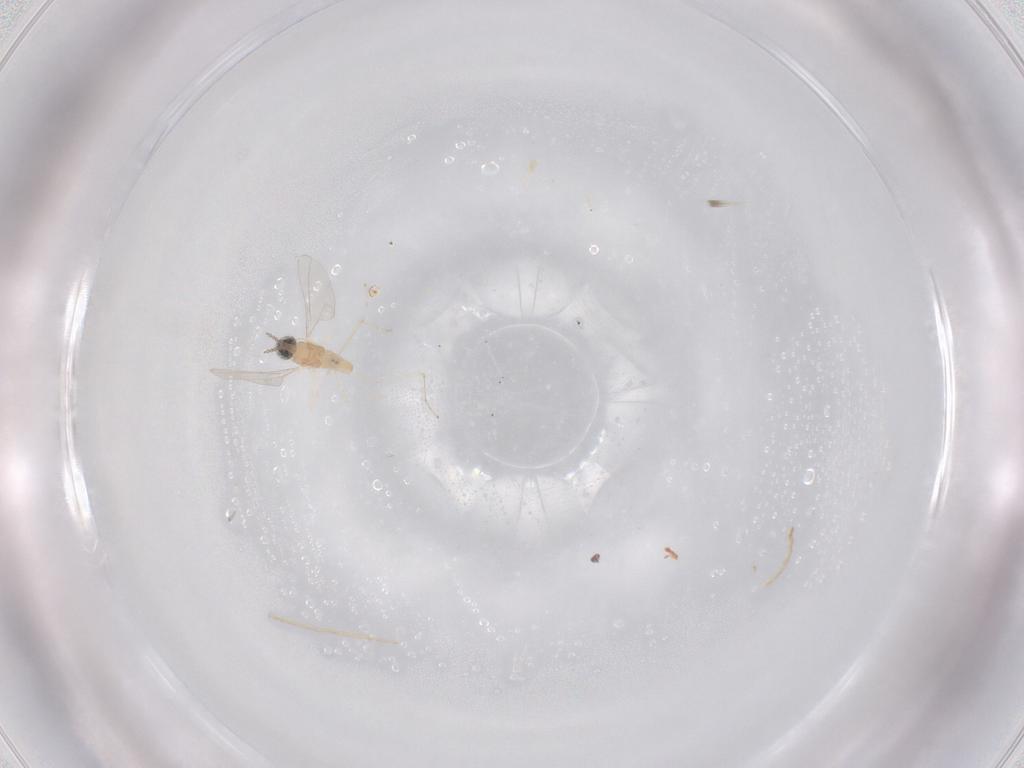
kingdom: Animalia
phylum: Arthropoda
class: Insecta
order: Diptera
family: Cecidomyiidae
